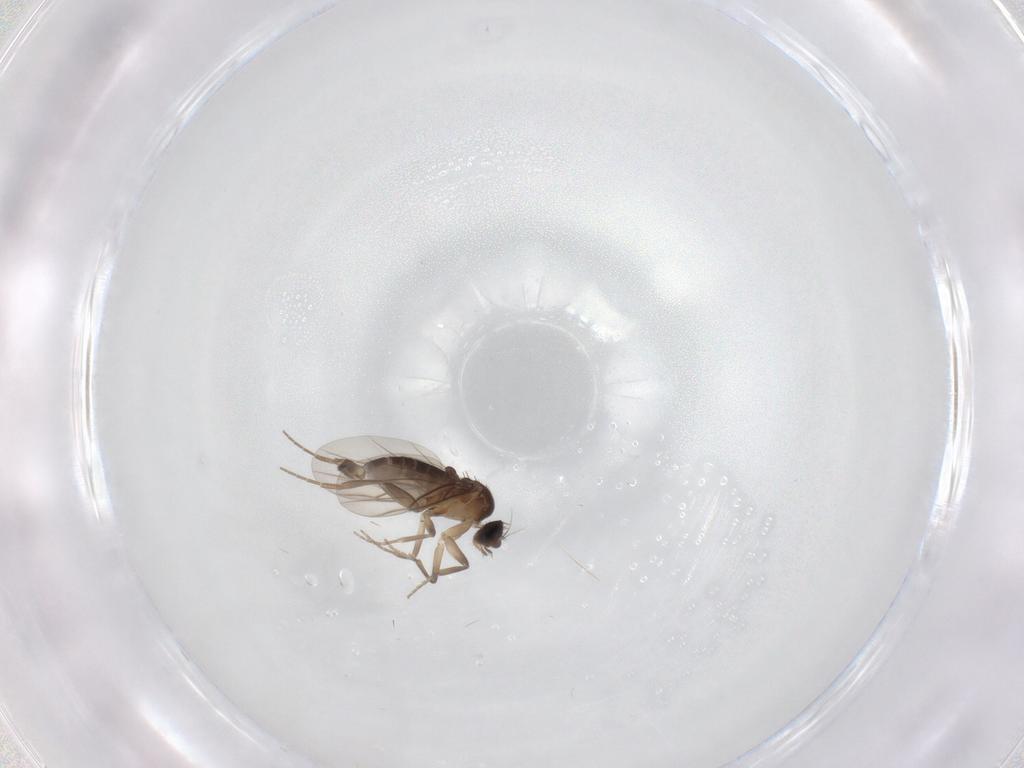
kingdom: Animalia
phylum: Arthropoda
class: Insecta
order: Diptera
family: Phoridae
